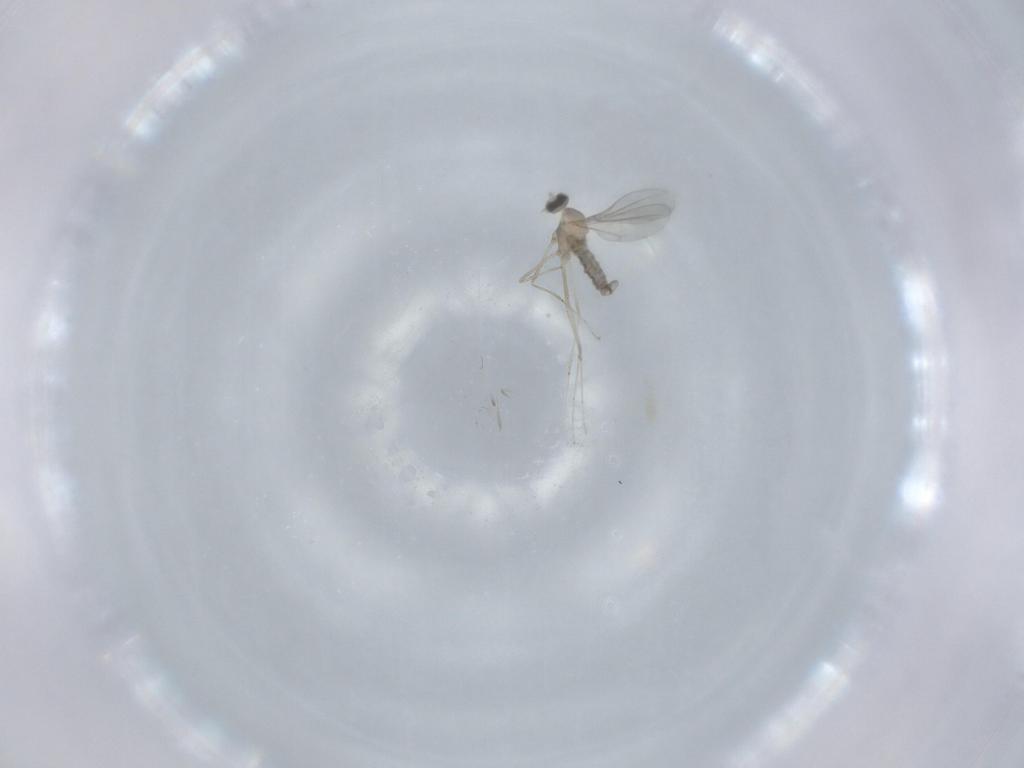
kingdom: Animalia
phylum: Arthropoda
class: Insecta
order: Diptera
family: Cecidomyiidae
